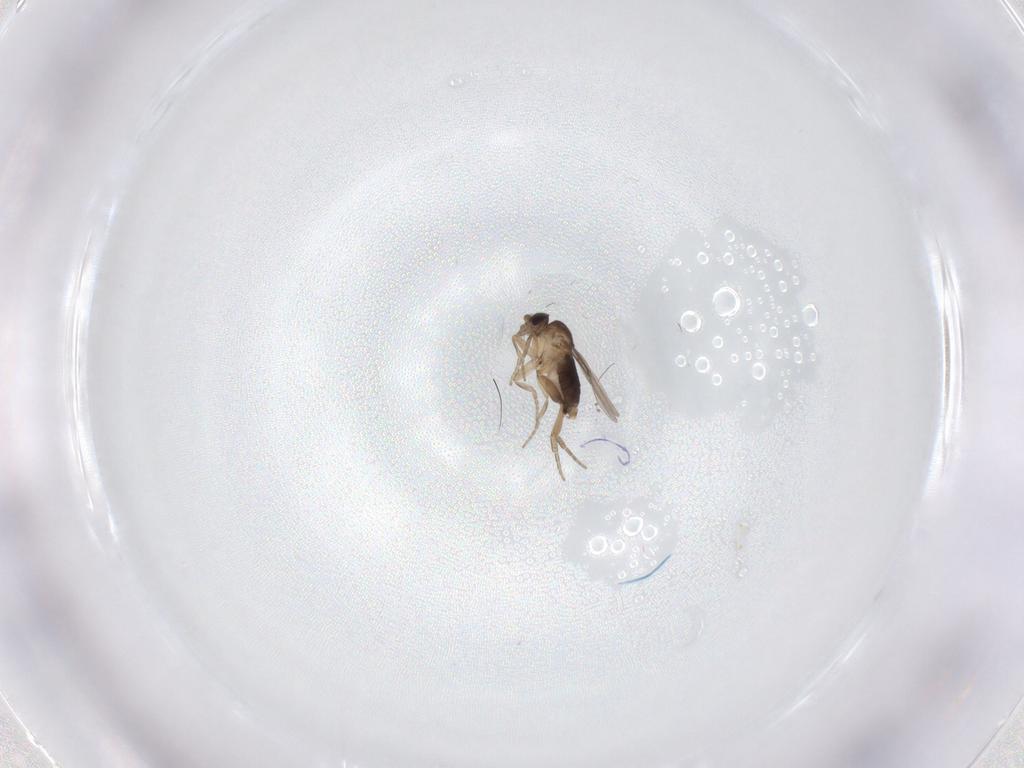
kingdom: Animalia
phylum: Arthropoda
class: Insecta
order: Diptera
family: Phoridae
